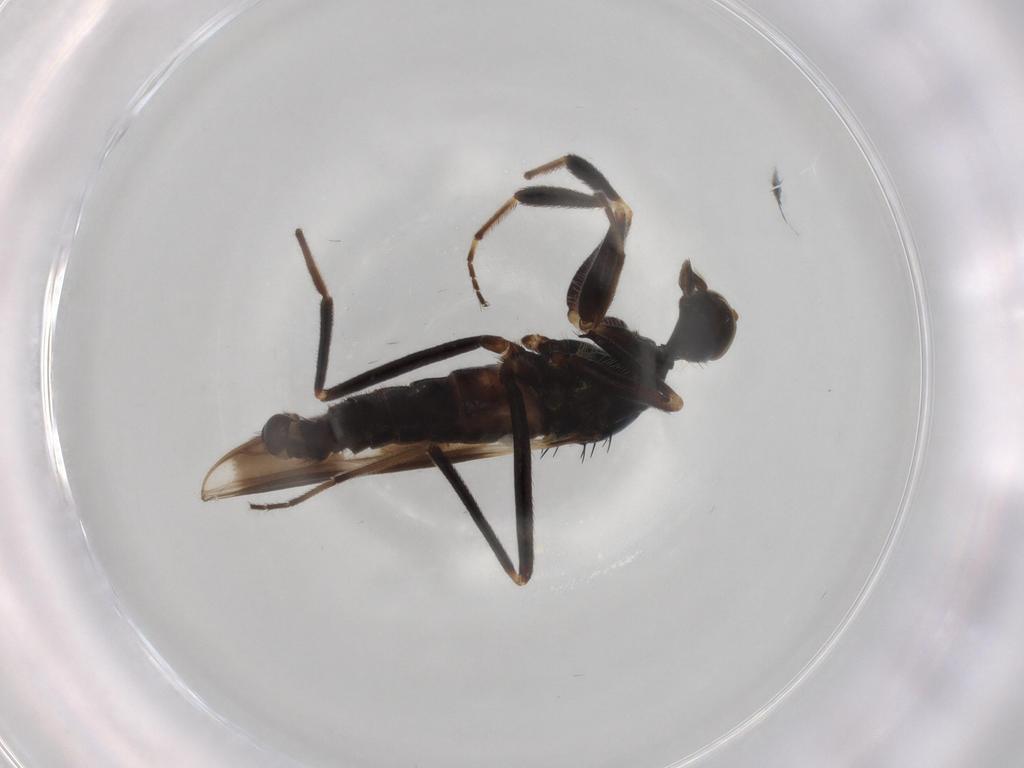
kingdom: Animalia
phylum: Arthropoda
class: Insecta
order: Diptera
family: Sphaeroceridae
